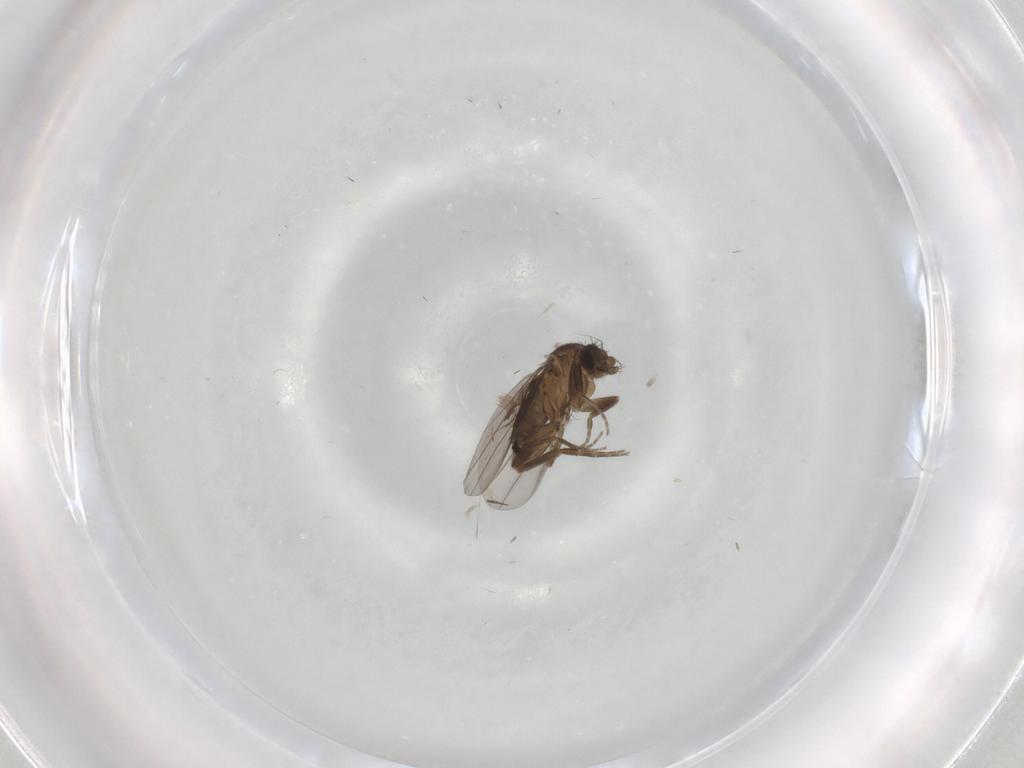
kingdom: Animalia
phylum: Arthropoda
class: Insecta
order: Diptera
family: Phoridae
